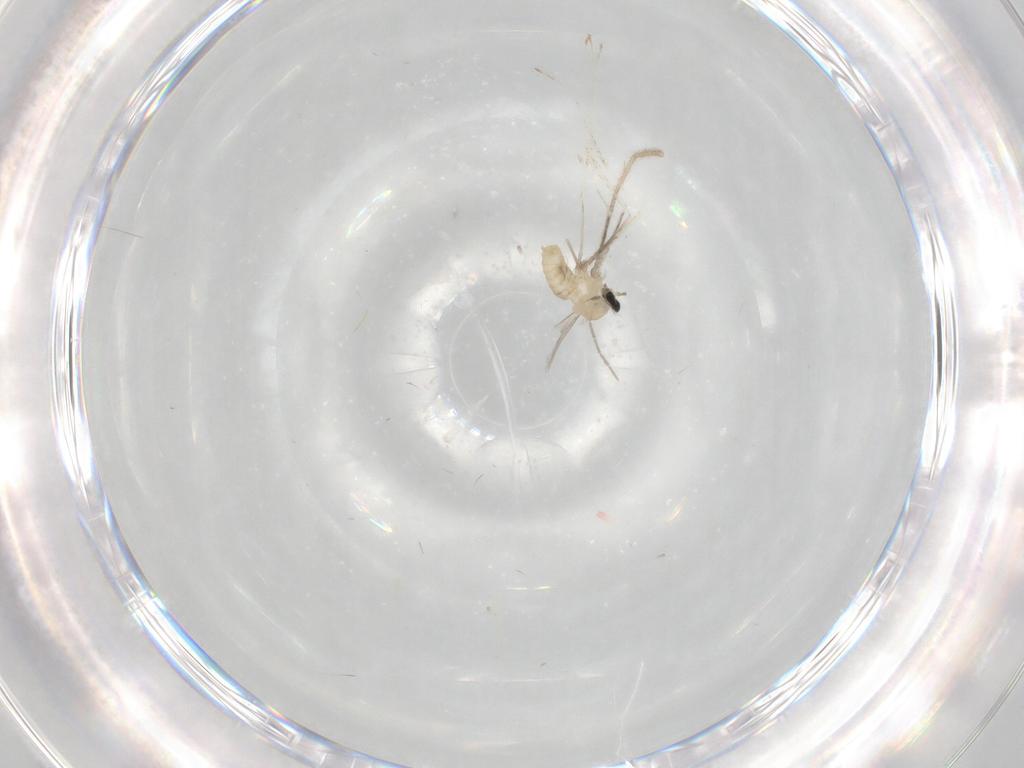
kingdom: Animalia
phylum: Arthropoda
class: Insecta
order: Diptera
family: Cecidomyiidae
